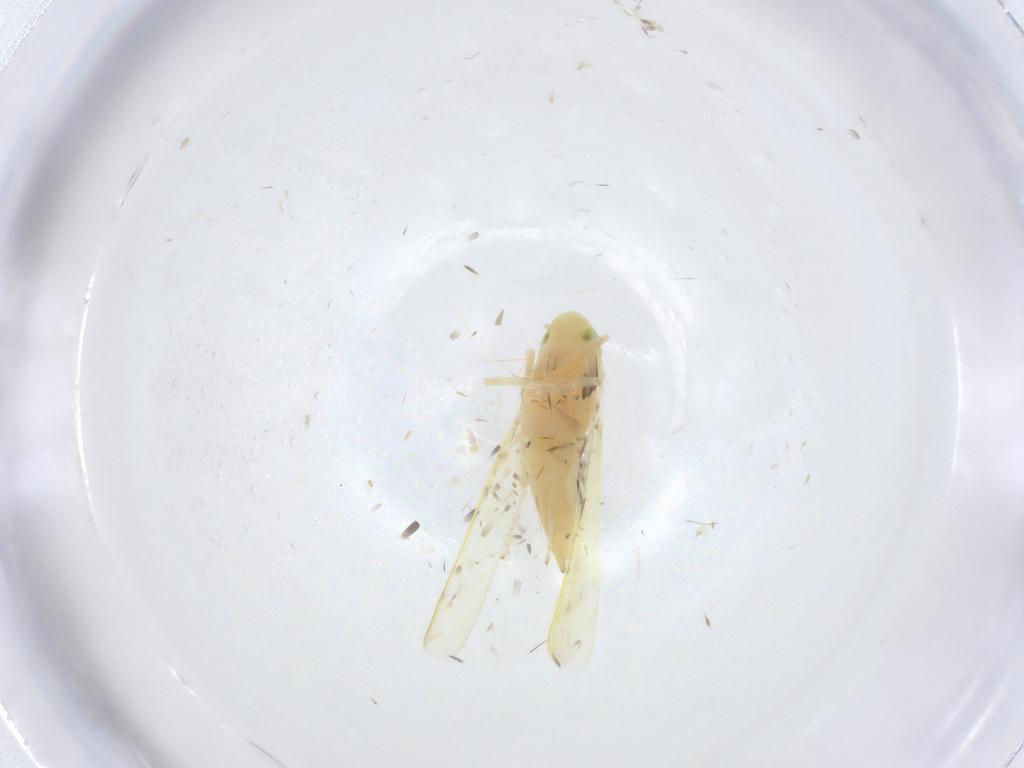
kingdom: Animalia
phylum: Arthropoda
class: Insecta
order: Hemiptera
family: Cicadellidae
